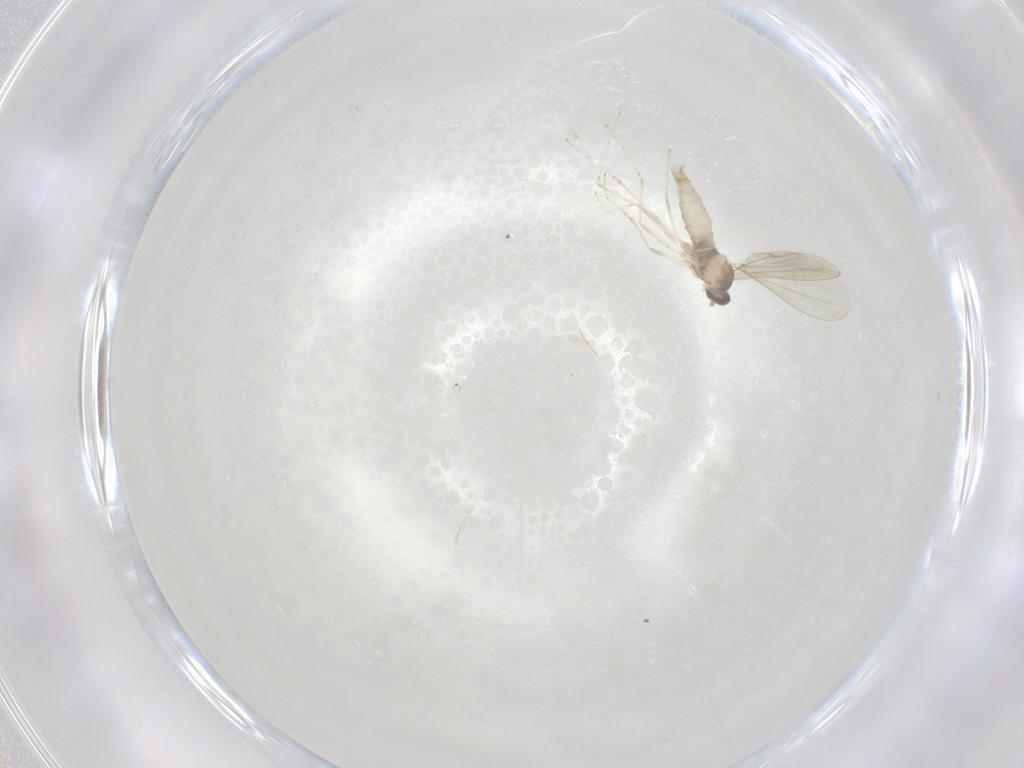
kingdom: Animalia
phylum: Arthropoda
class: Insecta
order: Diptera
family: Cecidomyiidae
